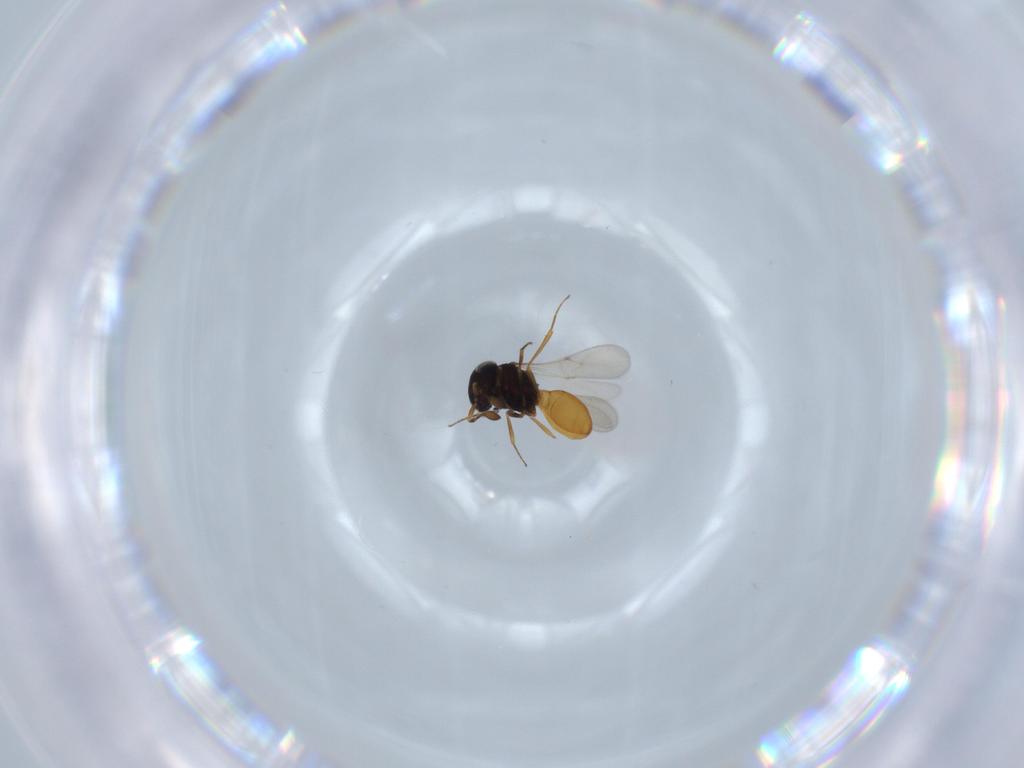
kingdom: Animalia
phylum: Arthropoda
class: Insecta
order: Hymenoptera
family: Scelionidae
